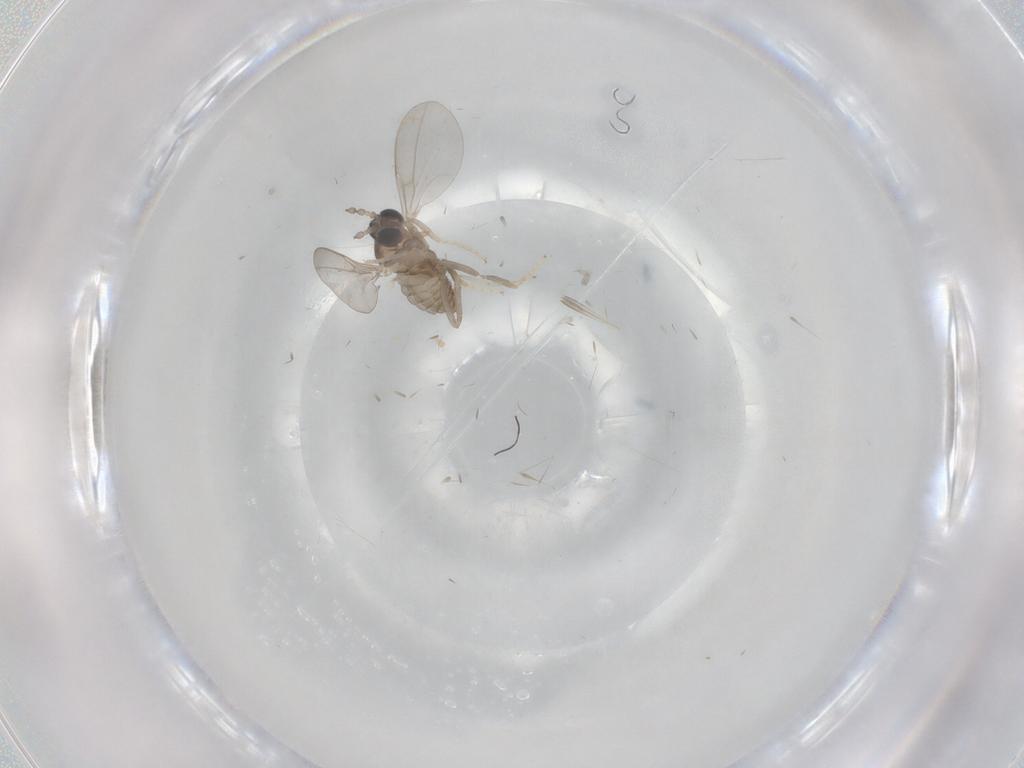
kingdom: Animalia
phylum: Arthropoda
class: Insecta
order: Diptera
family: Cecidomyiidae
